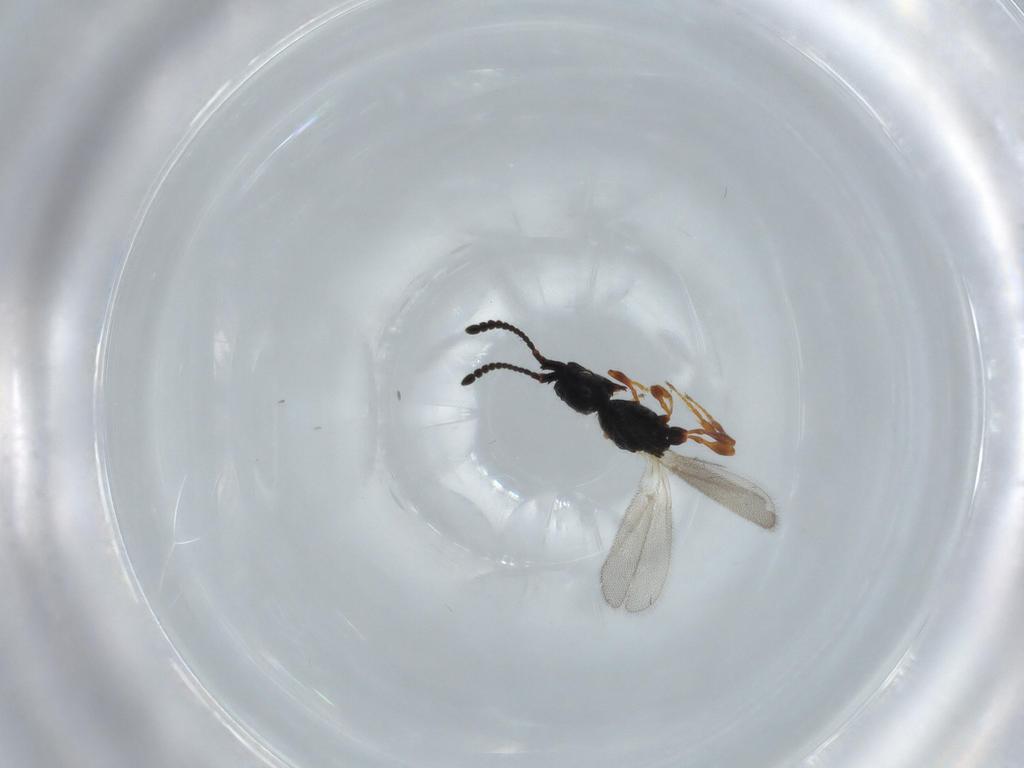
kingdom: Animalia
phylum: Arthropoda
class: Insecta
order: Hymenoptera
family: Diapriidae
